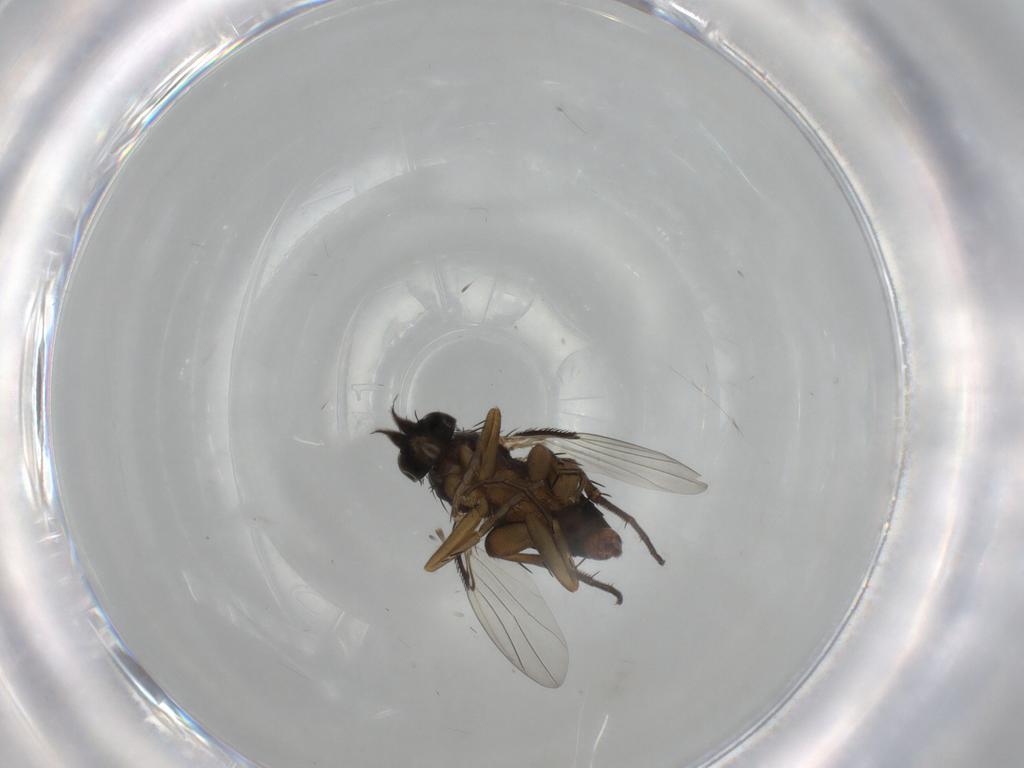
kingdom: Animalia
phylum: Arthropoda
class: Insecta
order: Diptera
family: Phoridae
